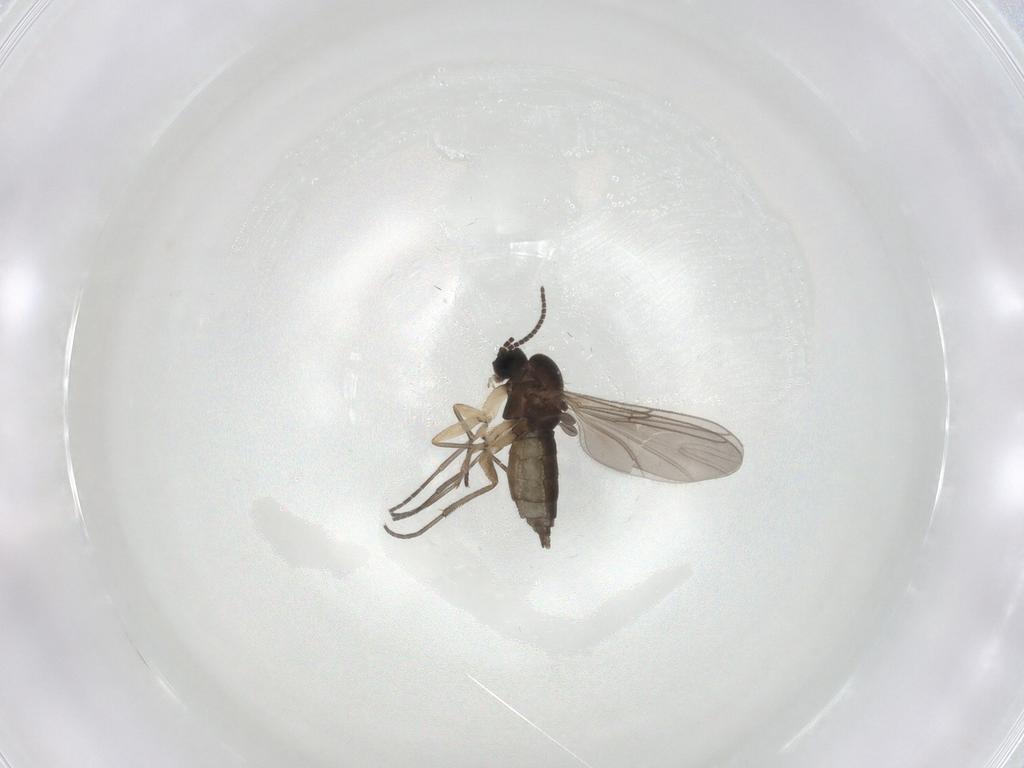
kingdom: Animalia
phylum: Arthropoda
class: Insecta
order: Diptera
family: Sciaridae
